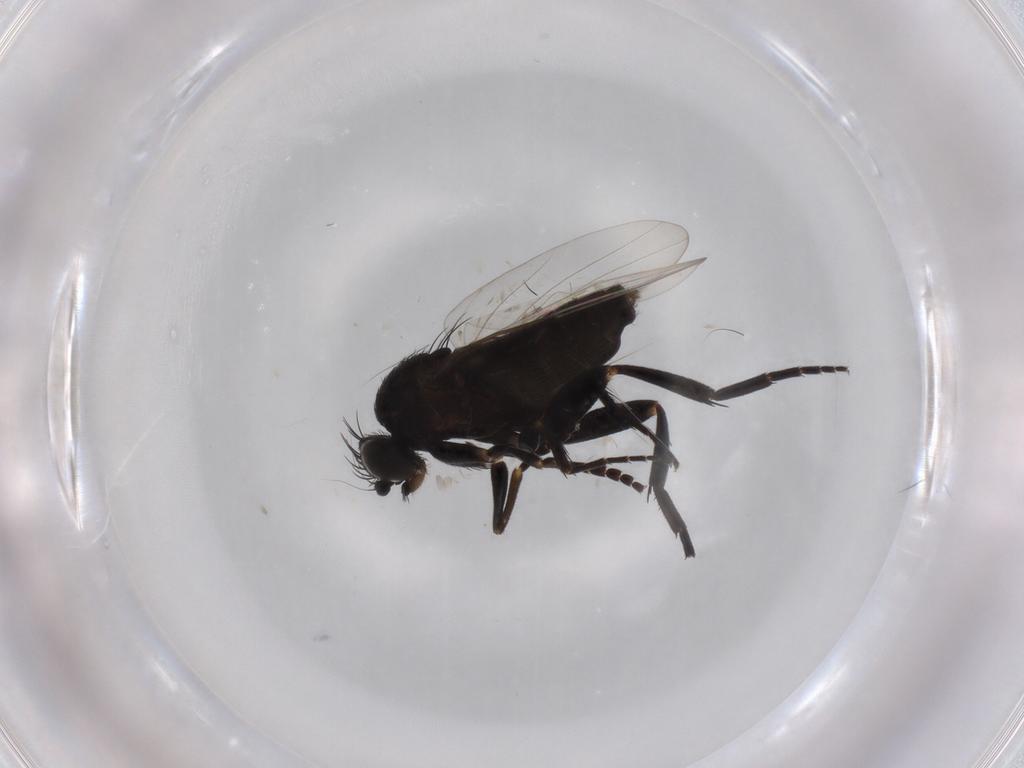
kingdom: Animalia
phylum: Arthropoda
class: Insecta
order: Diptera
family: Phoridae
